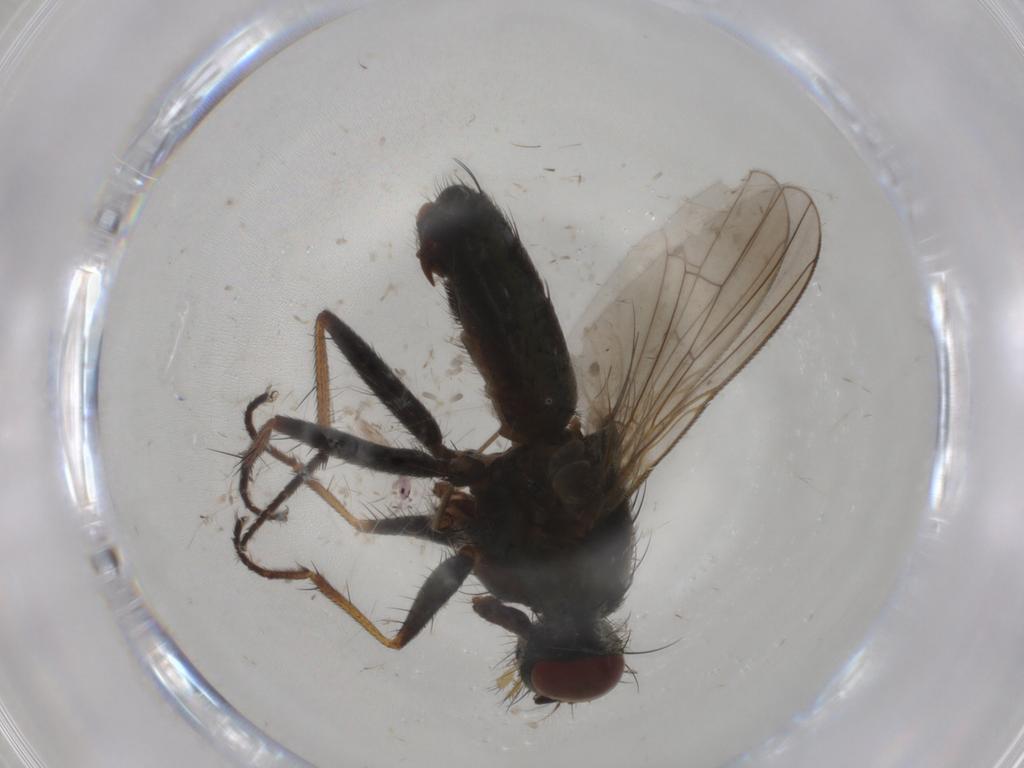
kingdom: Animalia
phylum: Arthropoda
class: Insecta
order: Diptera
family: Muscidae
